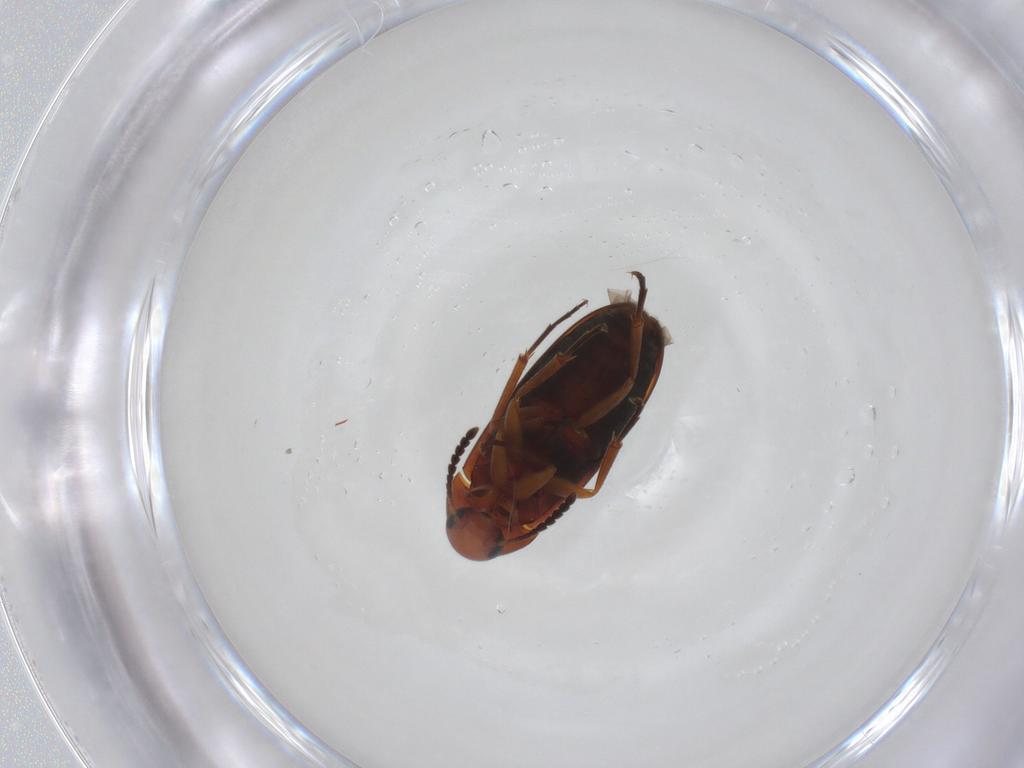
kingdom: Animalia
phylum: Arthropoda
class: Insecta
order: Coleoptera
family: Scraptiidae
